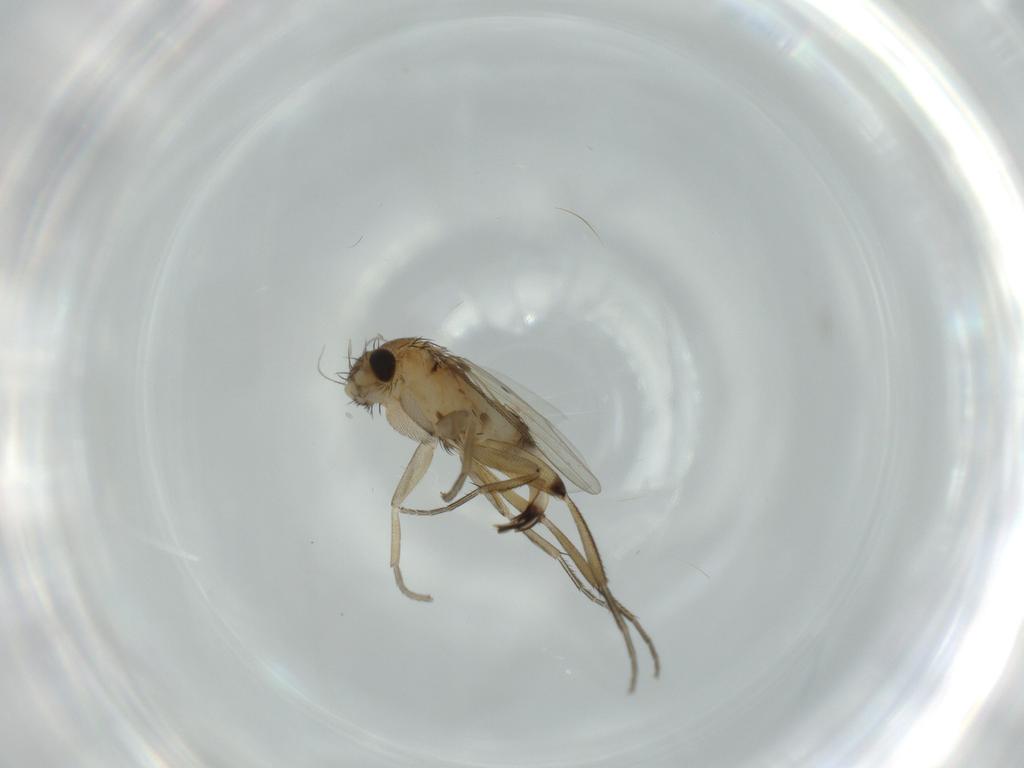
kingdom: Animalia
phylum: Arthropoda
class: Insecta
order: Diptera
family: Phoridae
